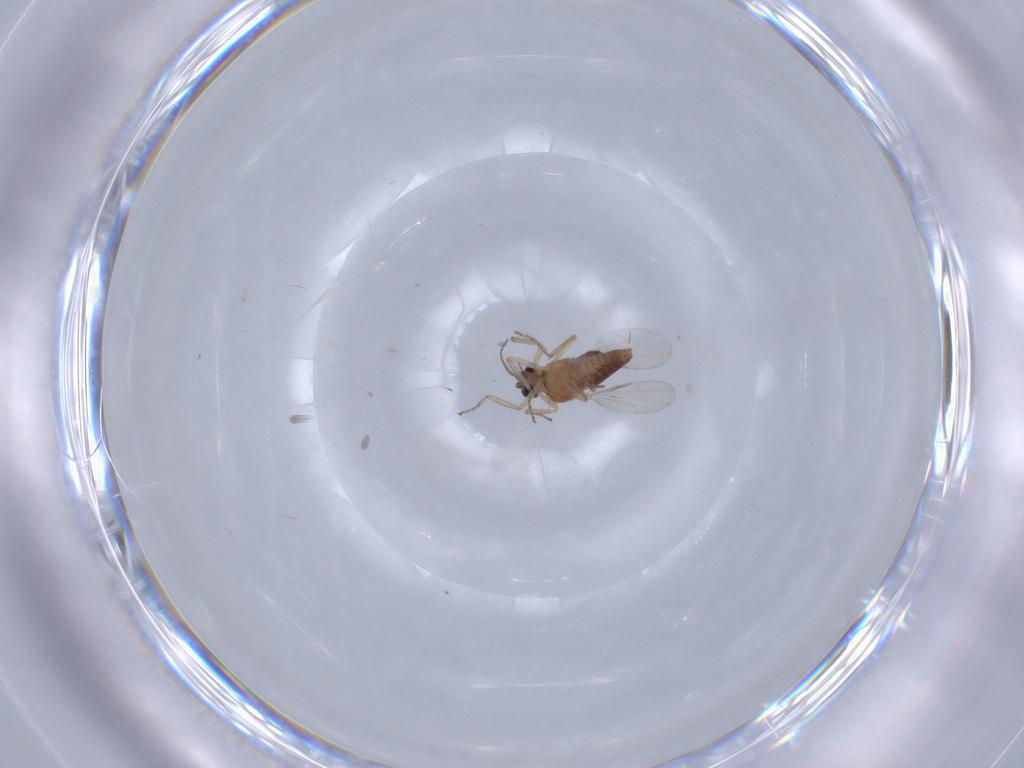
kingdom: Animalia
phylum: Arthropoda
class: Insecta
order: Diptera
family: Ceratopogonidae
